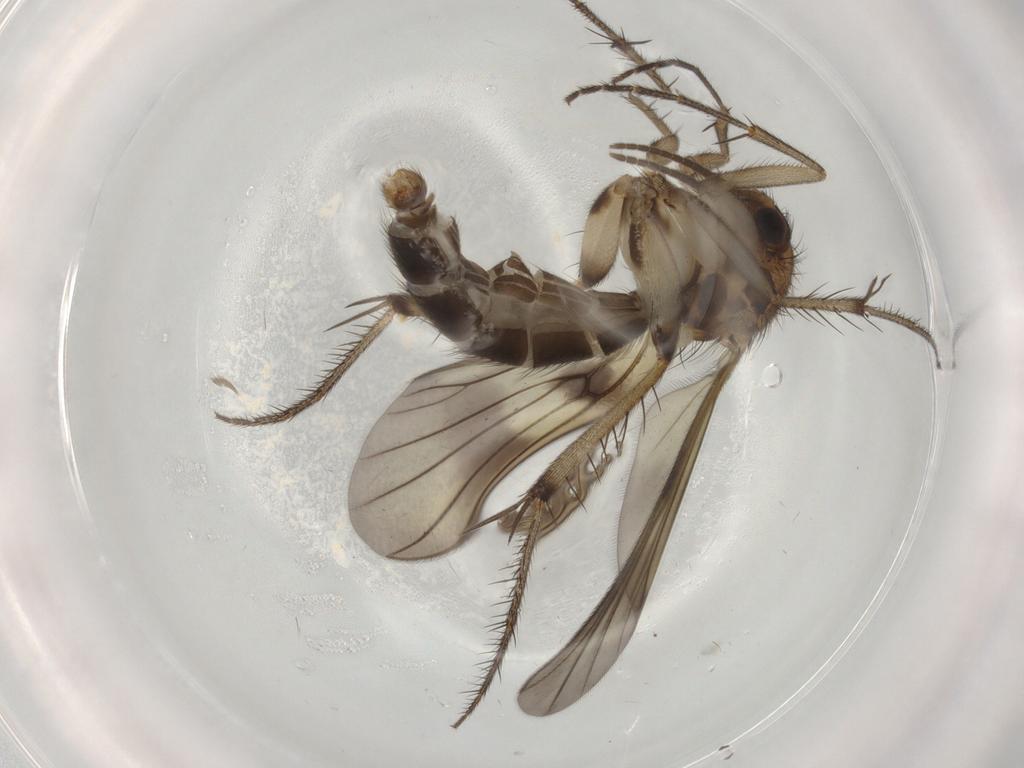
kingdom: Animalia
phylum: Arthropoda
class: Insecta
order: Diptera
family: Mycetophilidae
